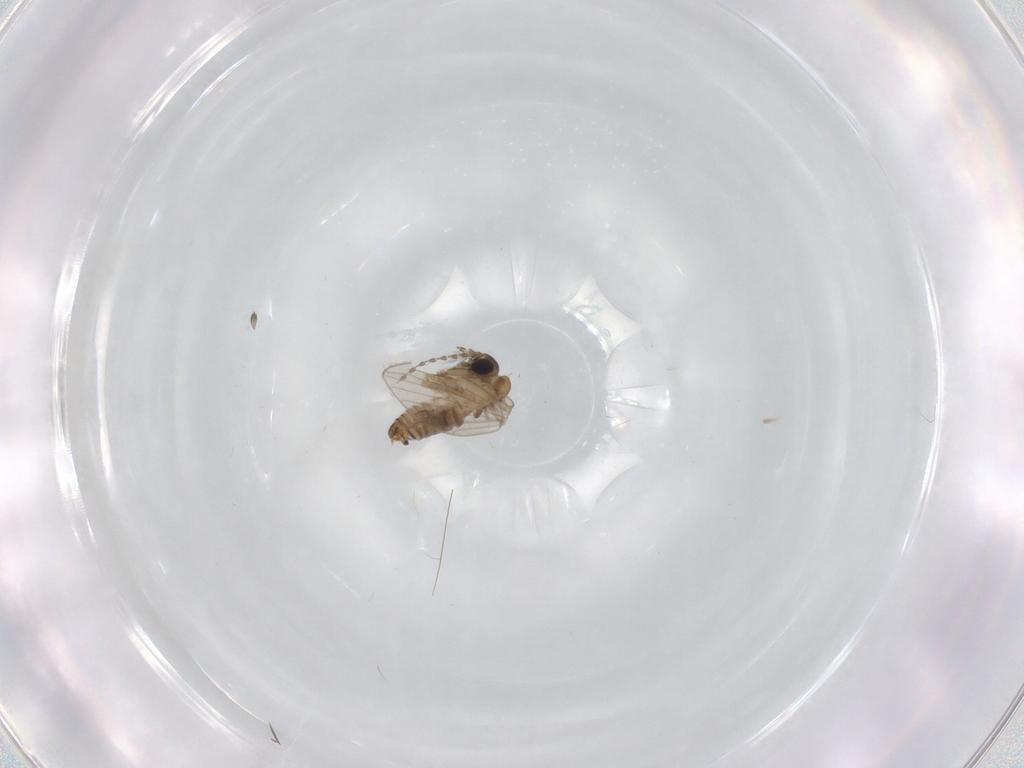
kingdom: Animalia
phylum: Arthropoda
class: Insecta
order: Diptera
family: Psychodidae
